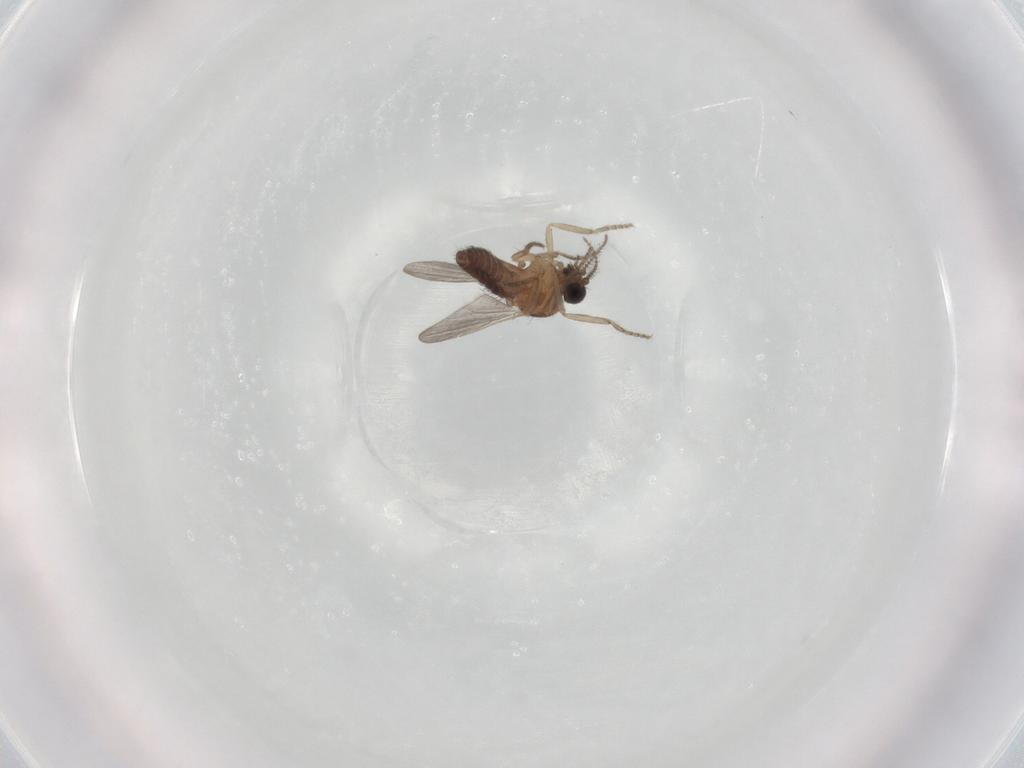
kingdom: Animalia
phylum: Arthropoda
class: Insecta
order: Diptera
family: Ceratopogonidae
